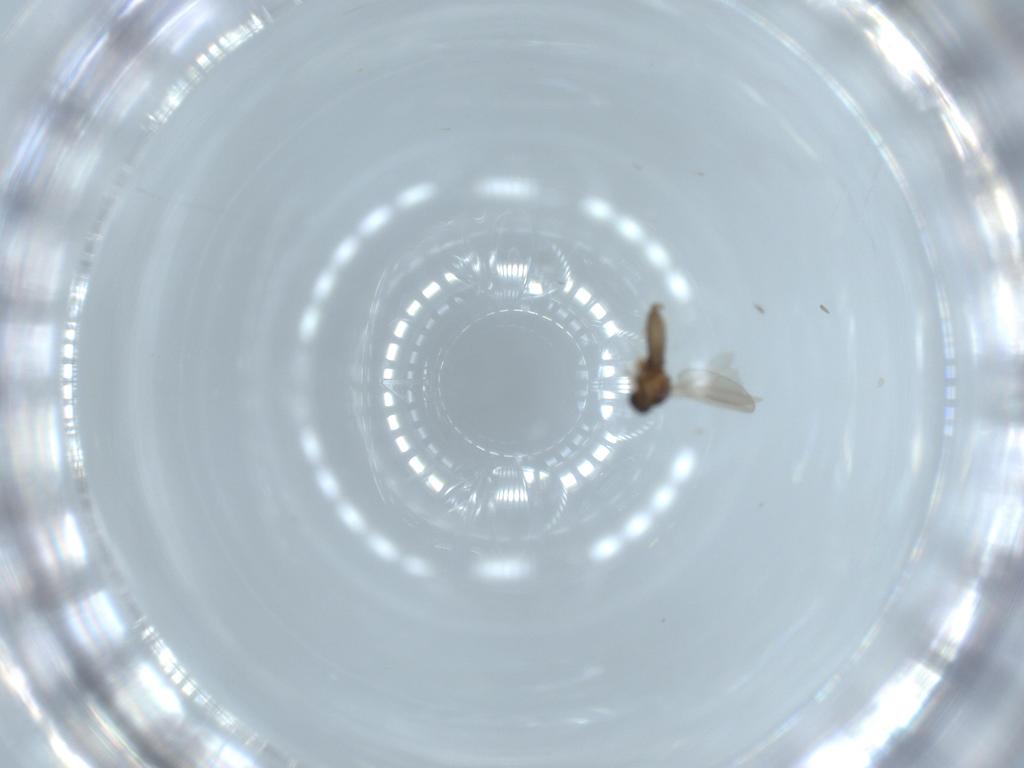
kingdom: Animalia
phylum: Arthropoda
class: Insecta
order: Diptera
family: Cecidomyiidae
